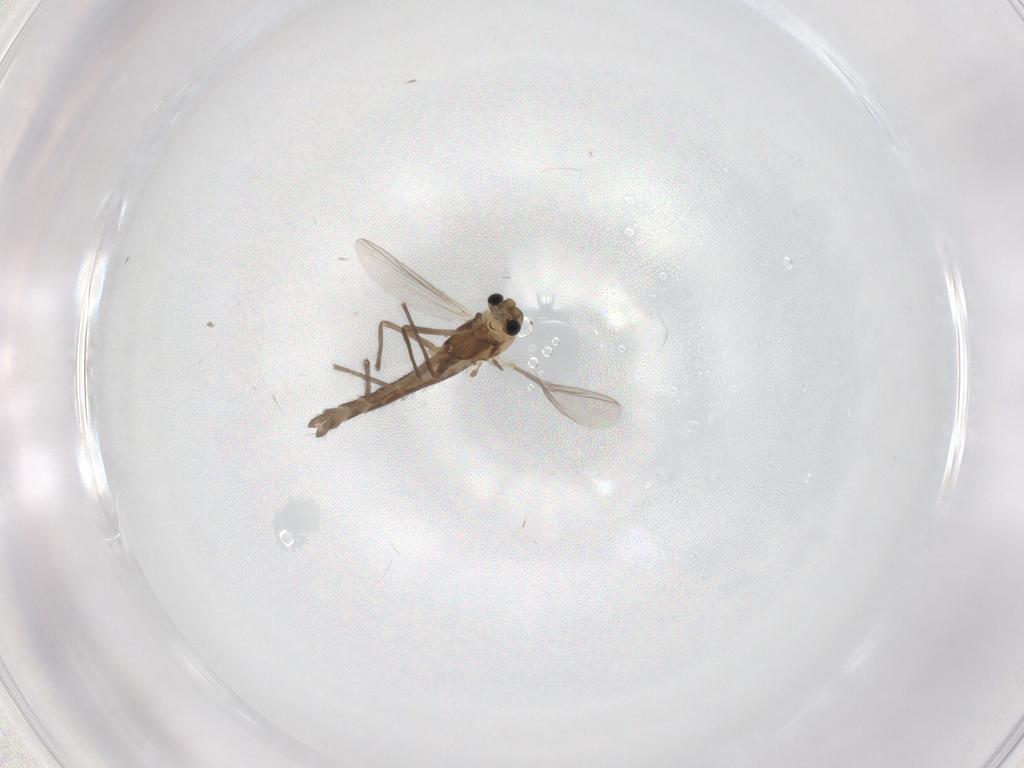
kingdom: Animalia
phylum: Arthropoda
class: Insecta
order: Diptera
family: Chironomidae
